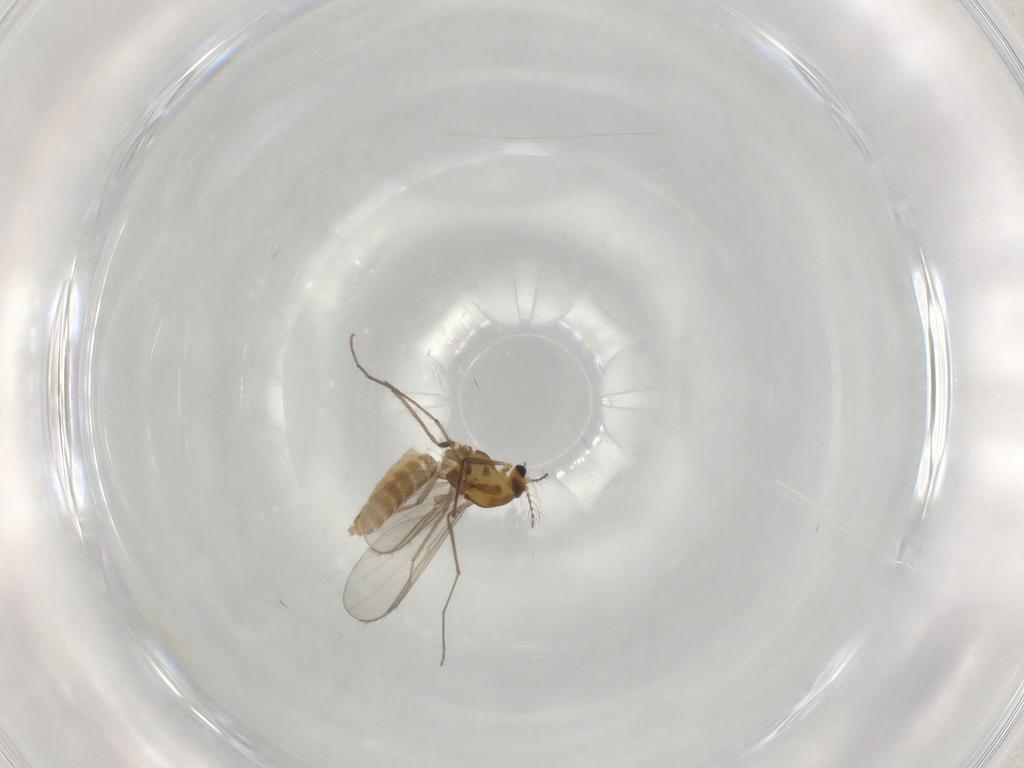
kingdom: Animalia
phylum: Arthropoda
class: Insecta
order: Diptera
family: Chironomidae
